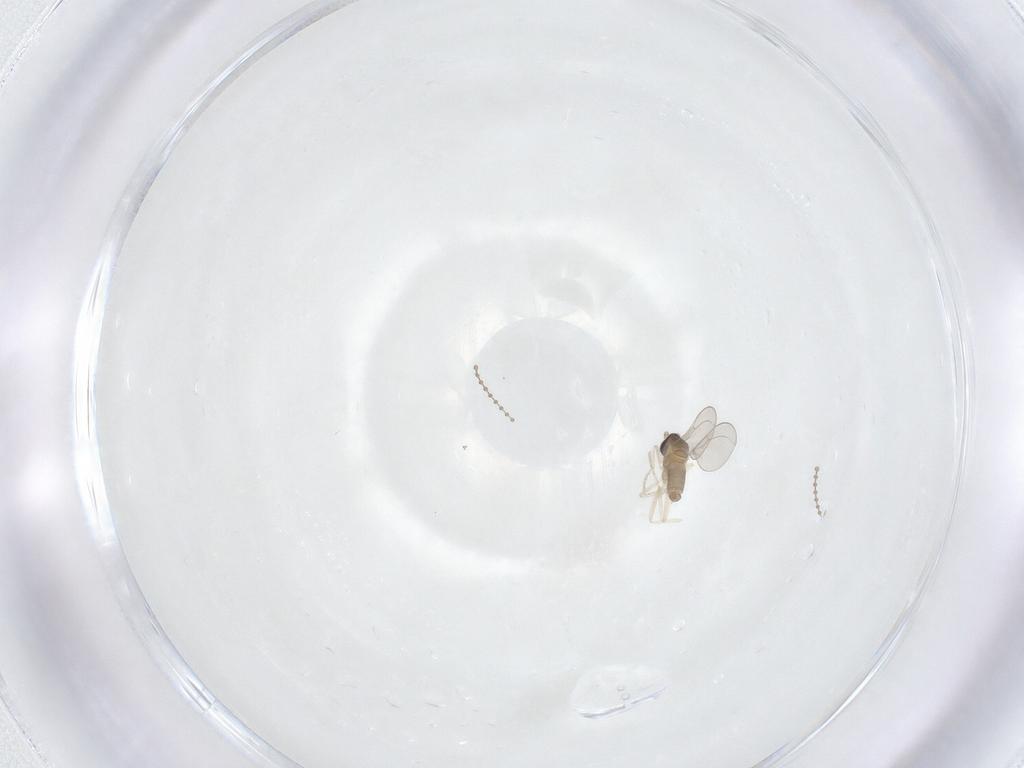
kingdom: Animalia
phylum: Arthropoda
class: Insecta
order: Diptera
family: Cecidomyiidae
